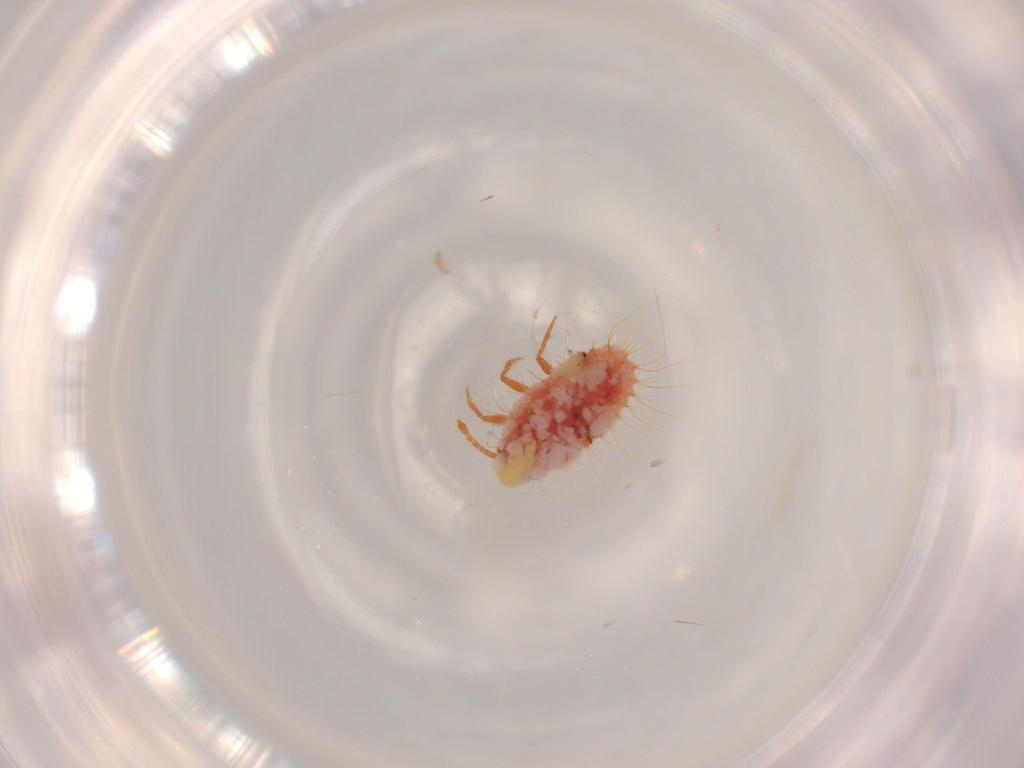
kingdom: Animalia
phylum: Arthropoda
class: Insecta
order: Hemiptera
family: Coccoidea_incertae_sedis
